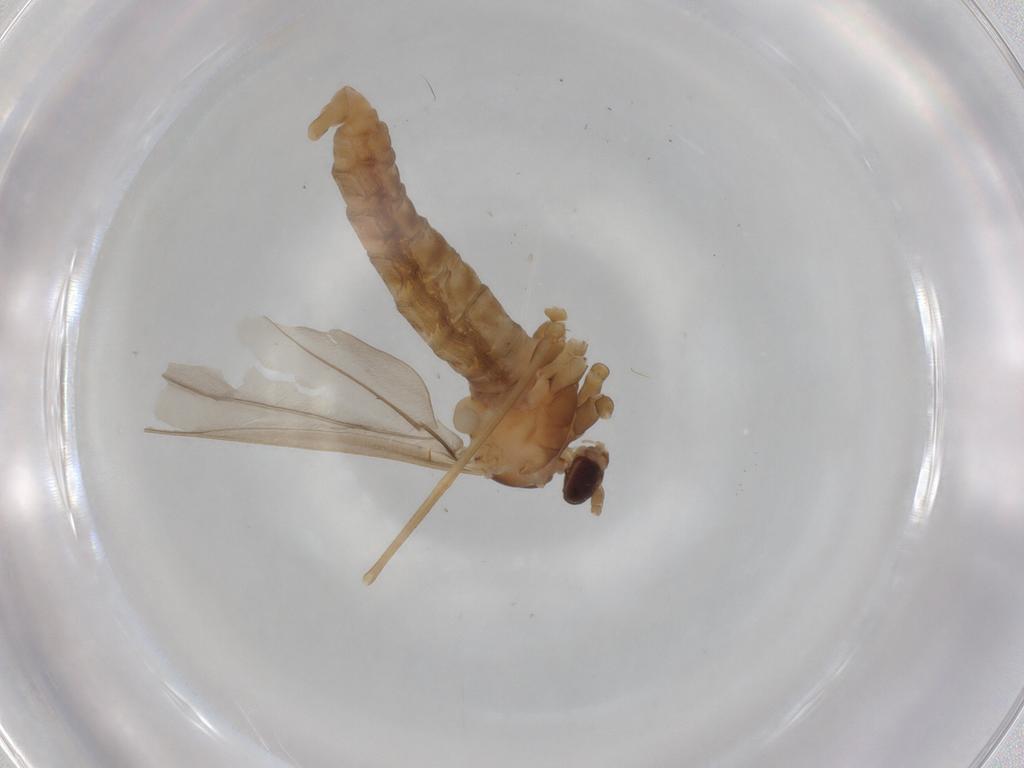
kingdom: Animalia
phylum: Arthropoda
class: Insecta
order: Diptera
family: Cecidomyiidae
